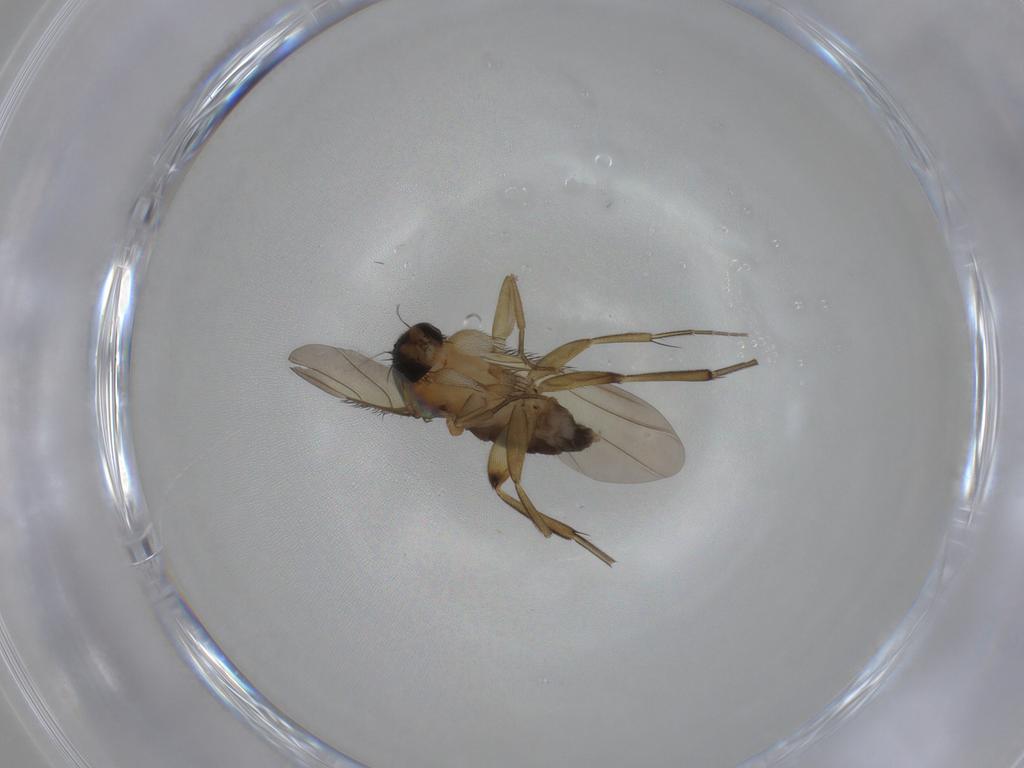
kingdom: Animalia
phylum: Arthropoda
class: Insecta
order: Diptera
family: Phoridae
